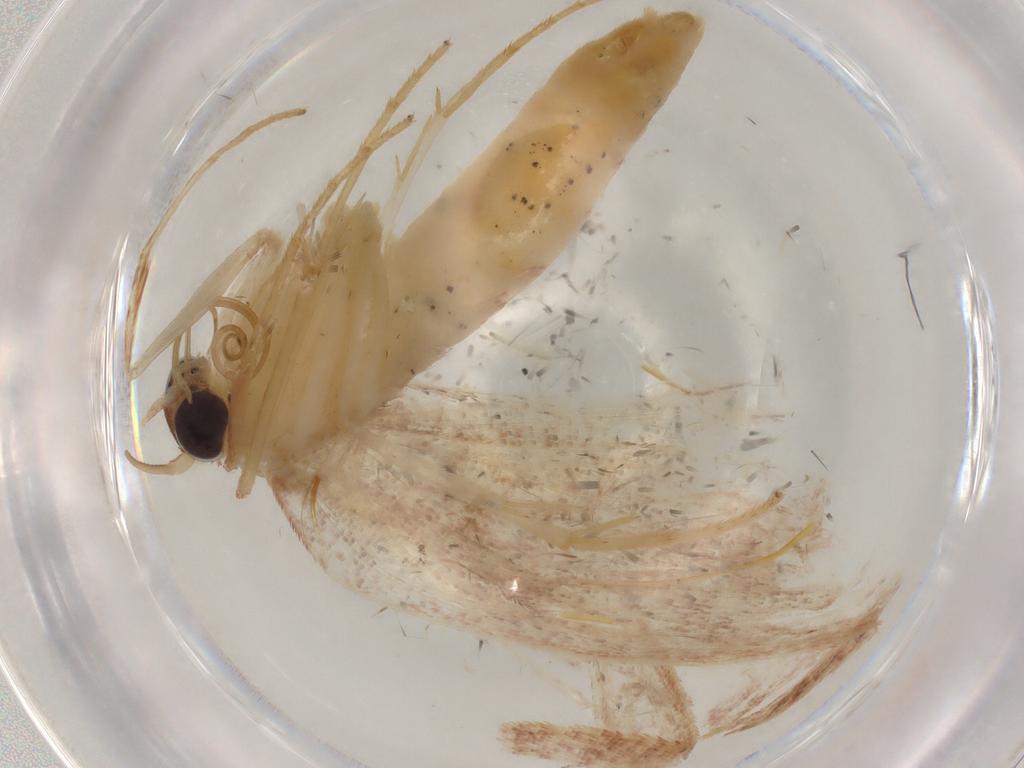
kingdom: Animalia
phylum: Arthropoda
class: Insecta
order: Lepidoptera
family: Geometridae
